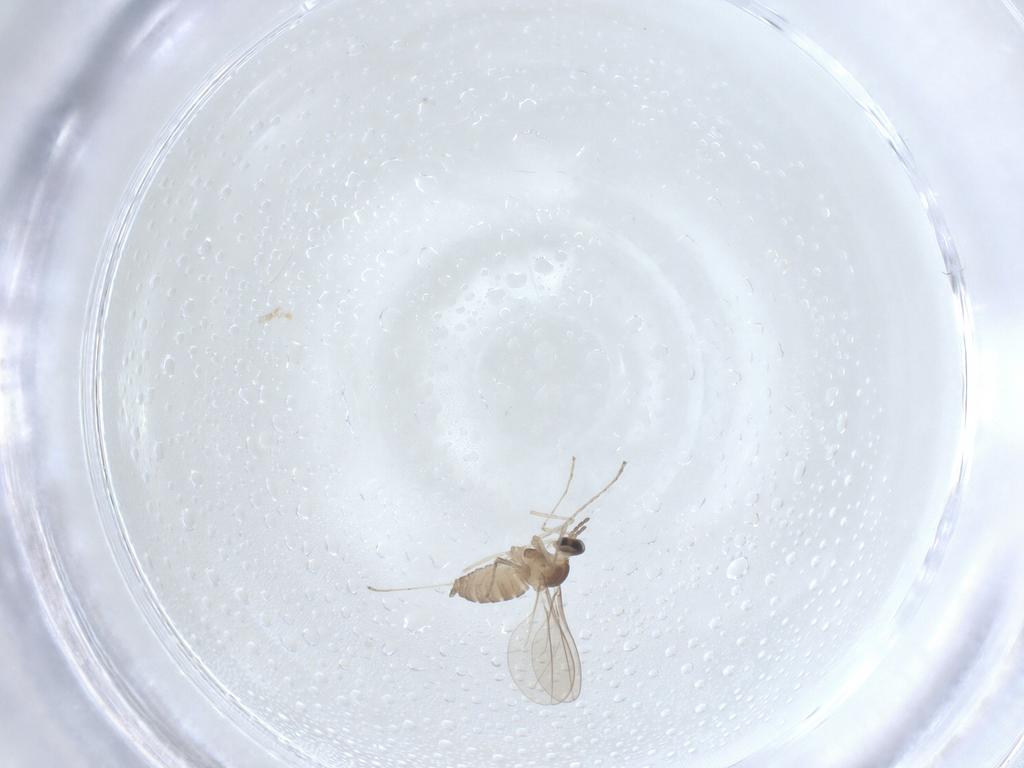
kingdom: Animalia
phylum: Arthropoda
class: Insecta
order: Diptera
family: Cecidomyiidae
